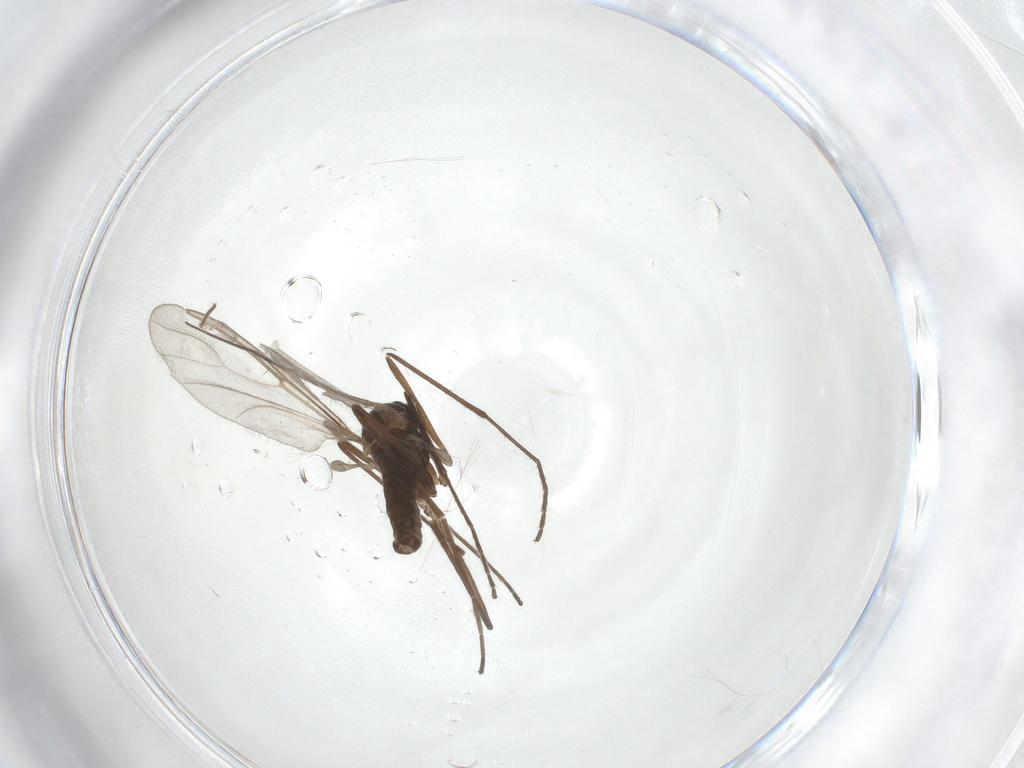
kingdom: Animalia
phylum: Arthropoda
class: Insecta
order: Diptera
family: Cecidomyiidae
